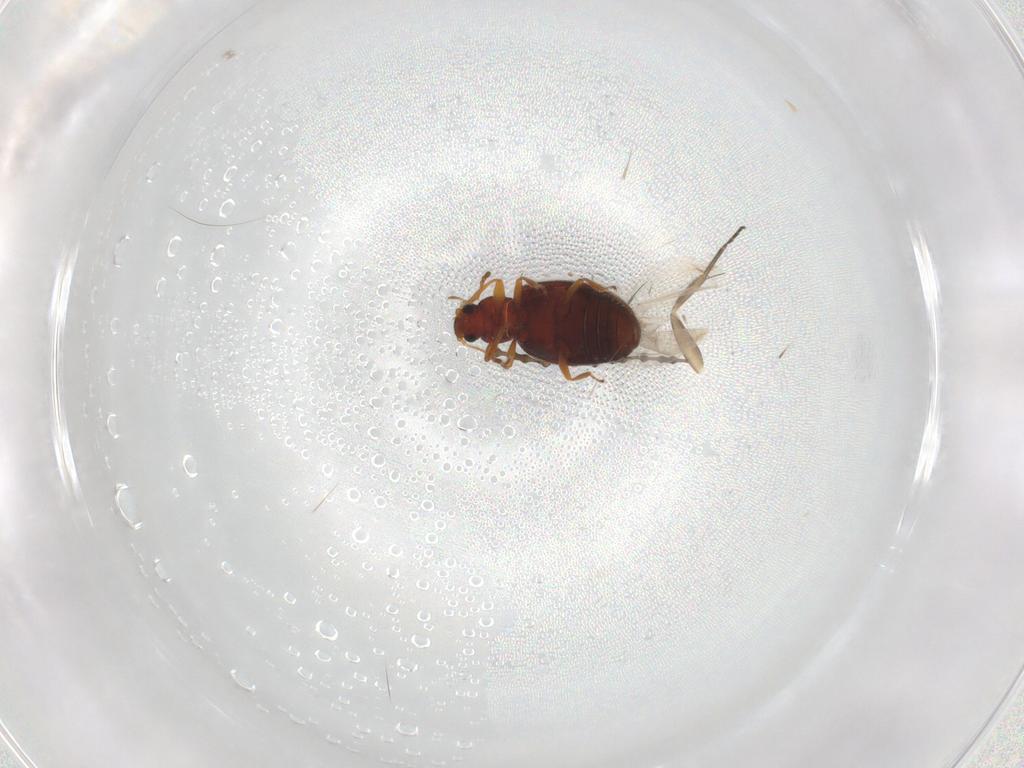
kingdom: Animalia
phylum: Arthropoda
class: Insecta
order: Coleoptera
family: Latridiidae
